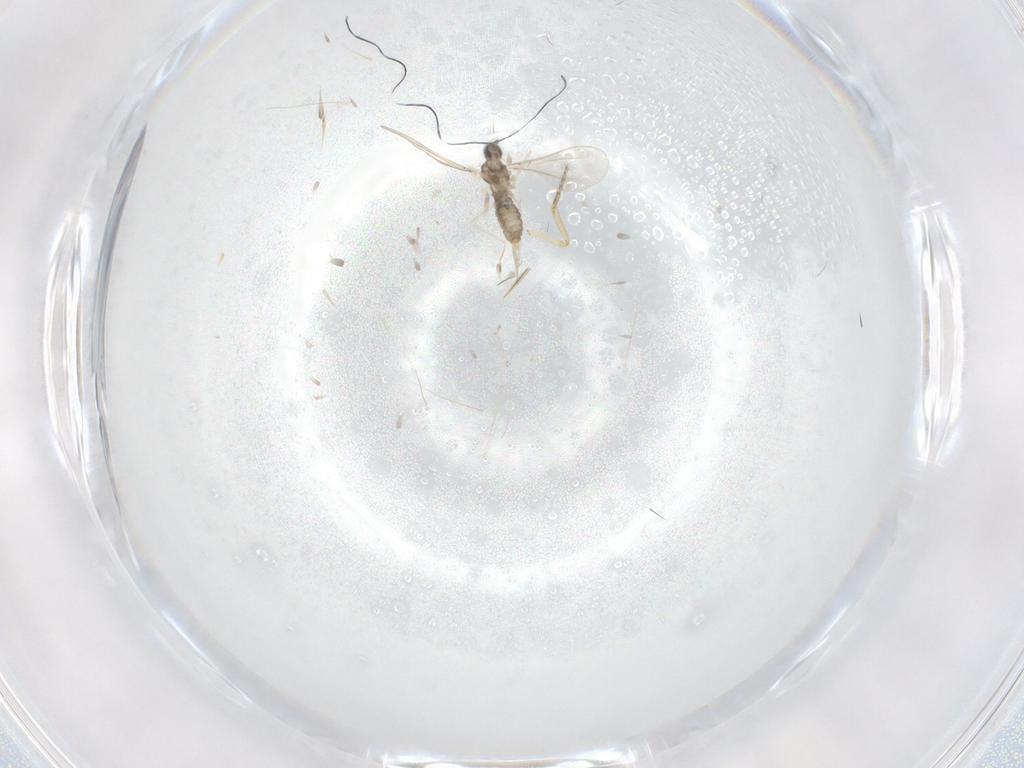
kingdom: Animalia
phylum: Arthropoda
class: Insecta
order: Diptera
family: Cecidomyiidae
